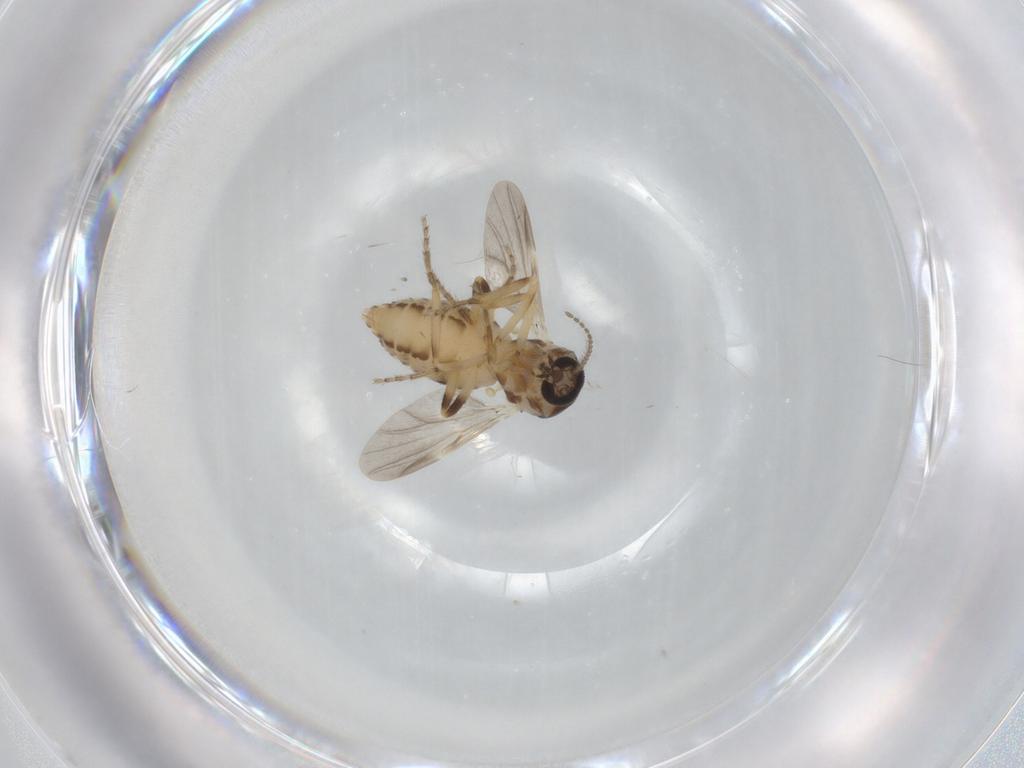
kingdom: Animalia
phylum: Arthropoda
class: Insecta
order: Diptera
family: Ceratopogonidae
